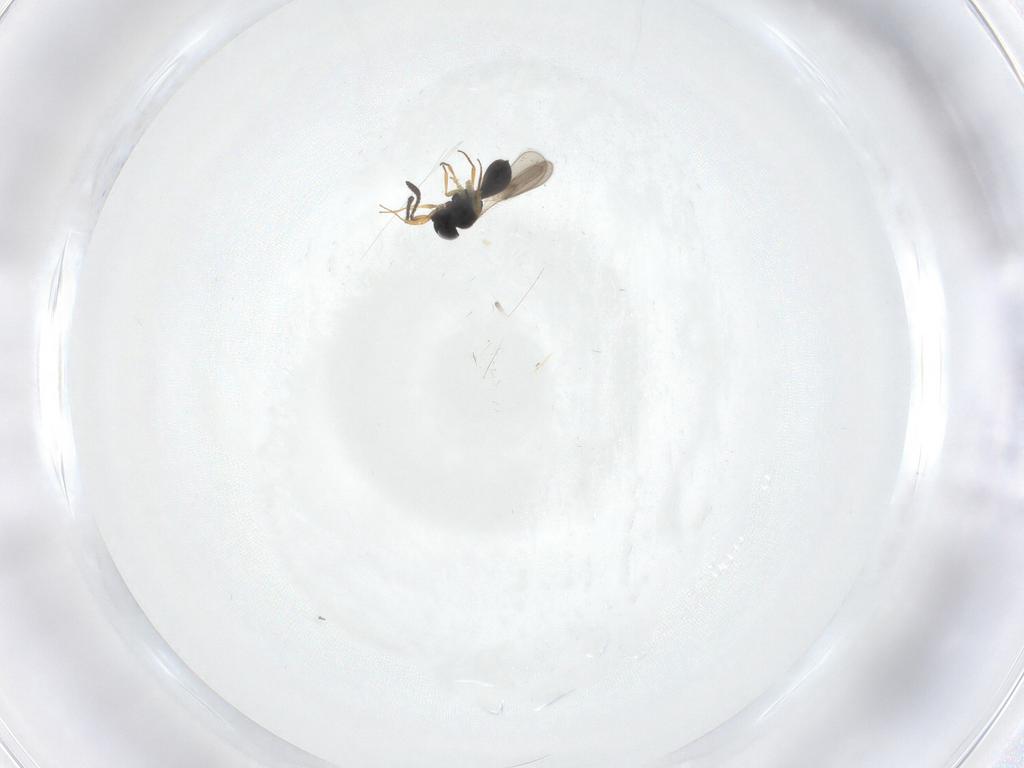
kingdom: Animalia
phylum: Arthropoda
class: Insecta
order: Hymenoptera
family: Scelionidae
